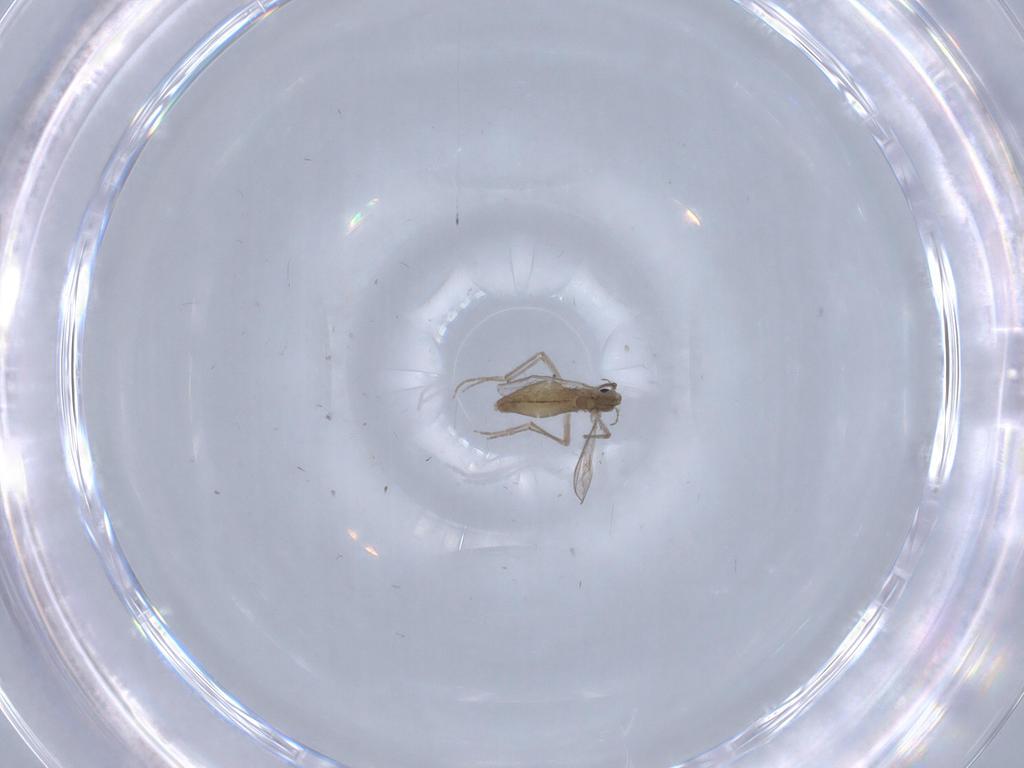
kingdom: Animalia
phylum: Arthropoda
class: Insecta
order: Diptera
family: Chironomidae
